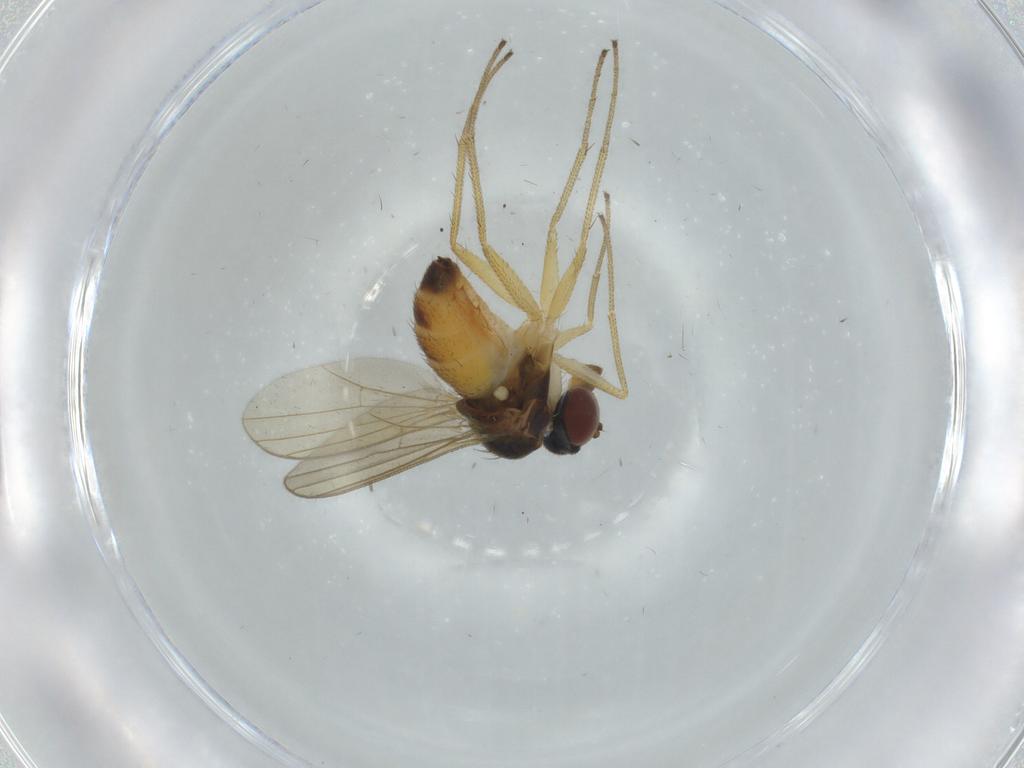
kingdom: Animalia
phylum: Arthropoda
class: Insecta
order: Diptera
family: Dolichopodidae
